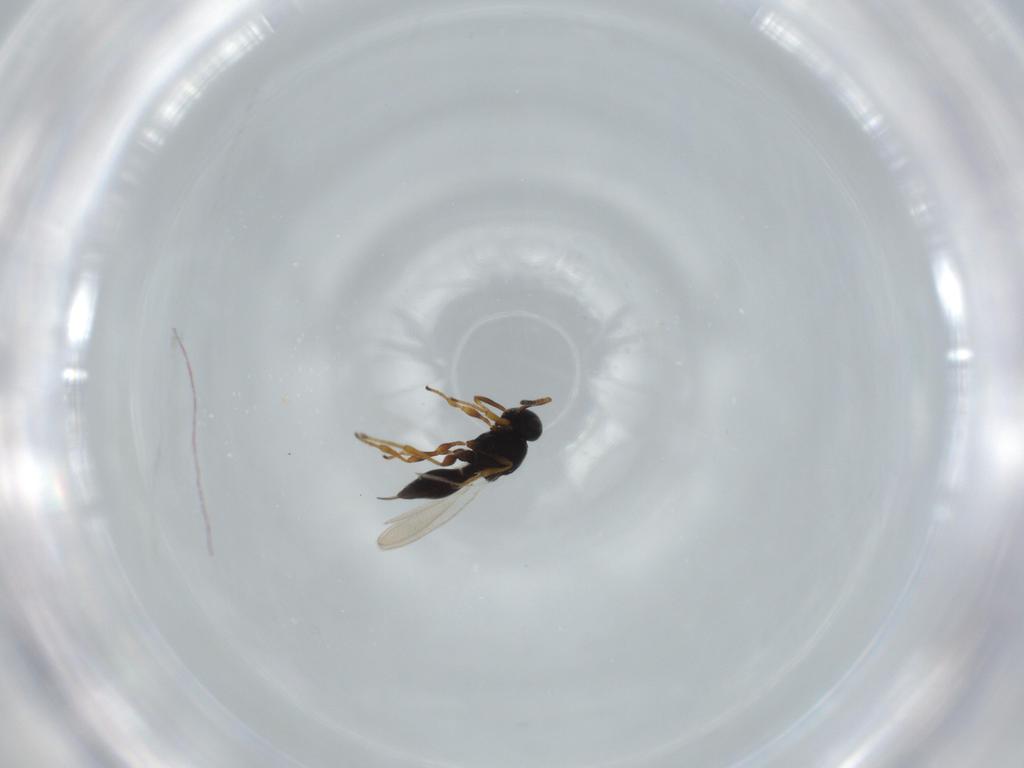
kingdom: Animalia
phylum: Arthropoda
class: Insecta
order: Hymenoptera
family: Platygastridae
